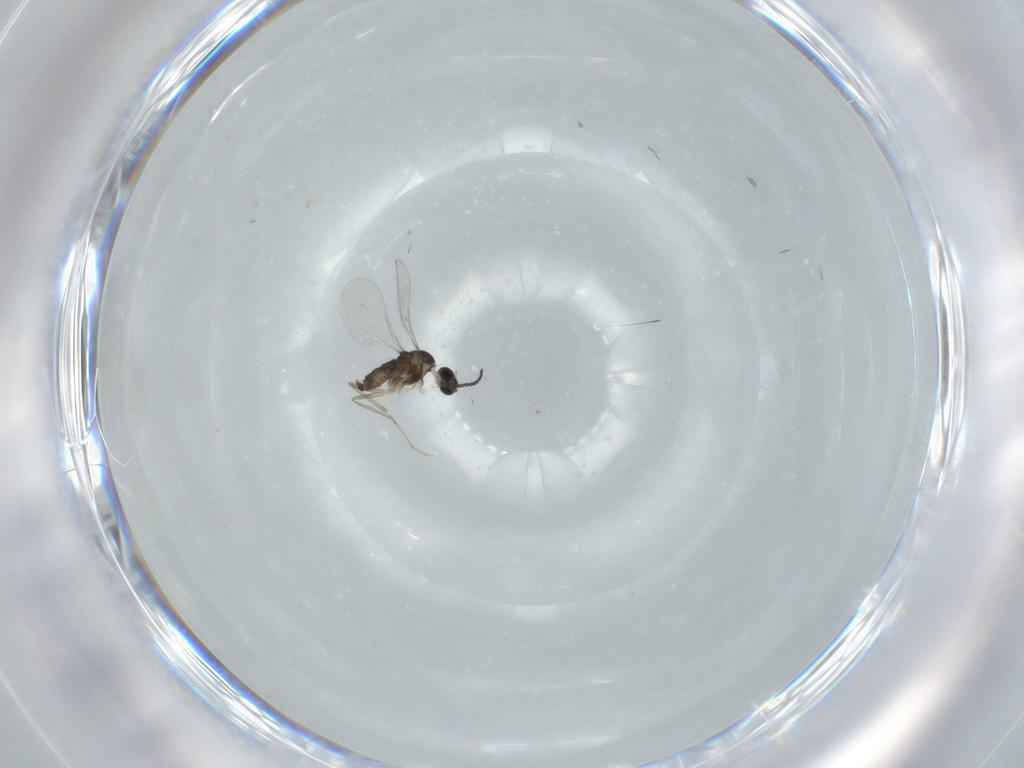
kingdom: Animalia
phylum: Arthropoda
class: Insecta
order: Diptera
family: Cecidomyiidae
